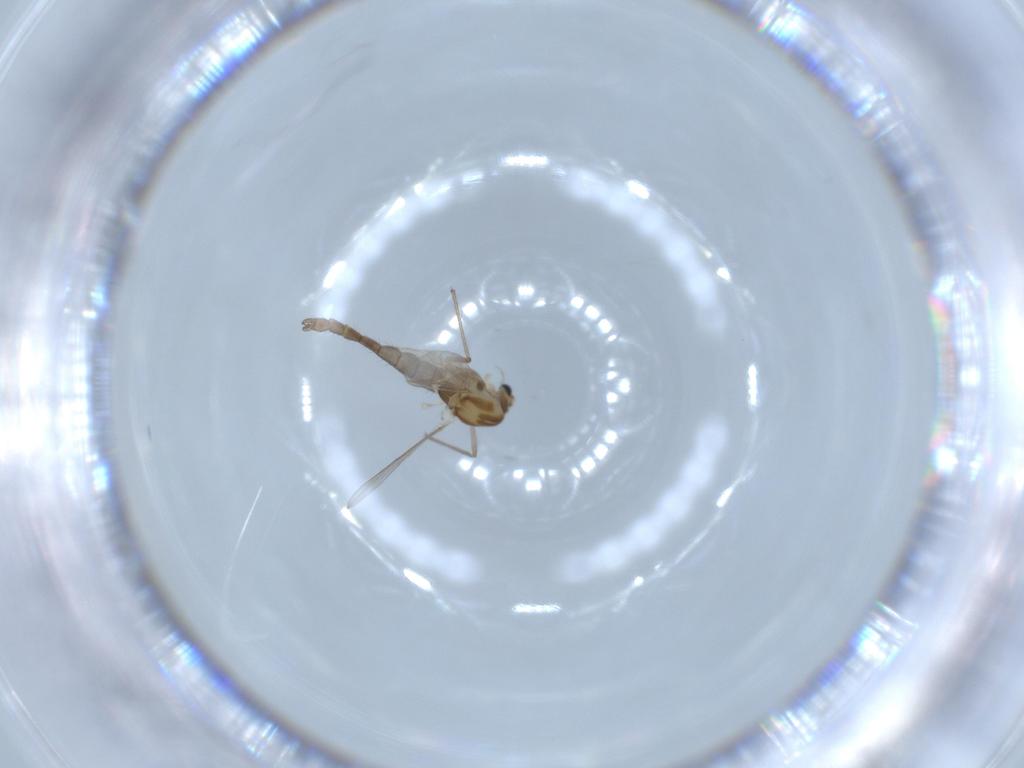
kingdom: Animalia
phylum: Arthropoda
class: Insecta
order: Diptera
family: Chironomidae
